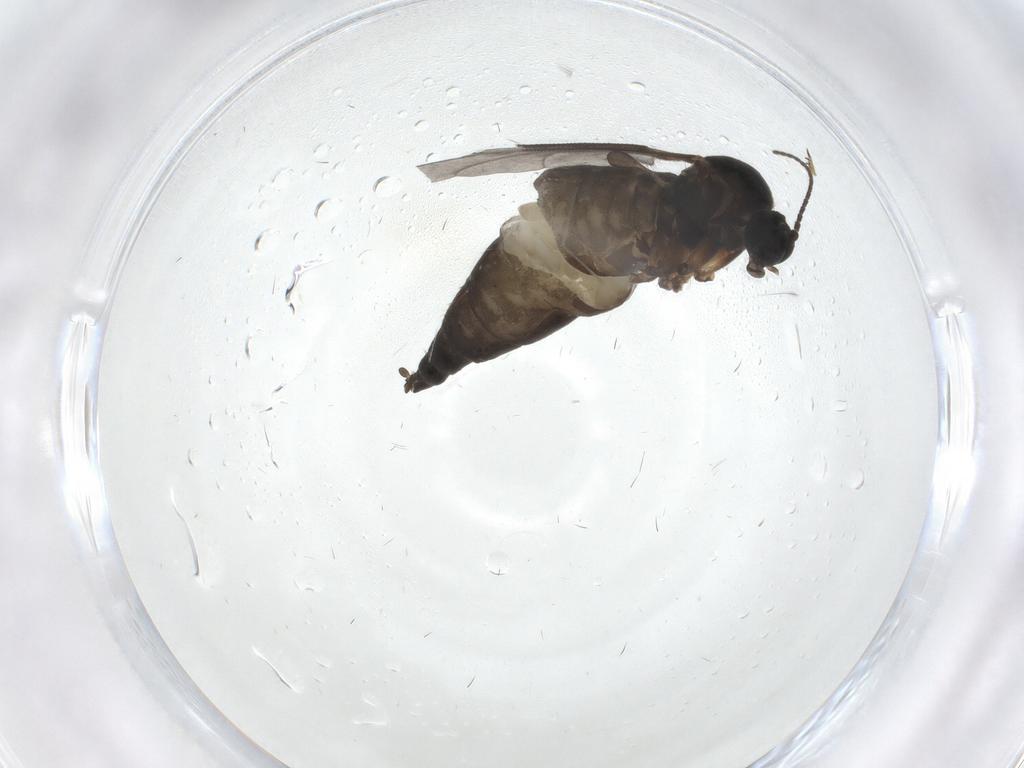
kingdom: Animalia
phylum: Arthropoda
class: Insecta
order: Diptera
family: Sciaridae
